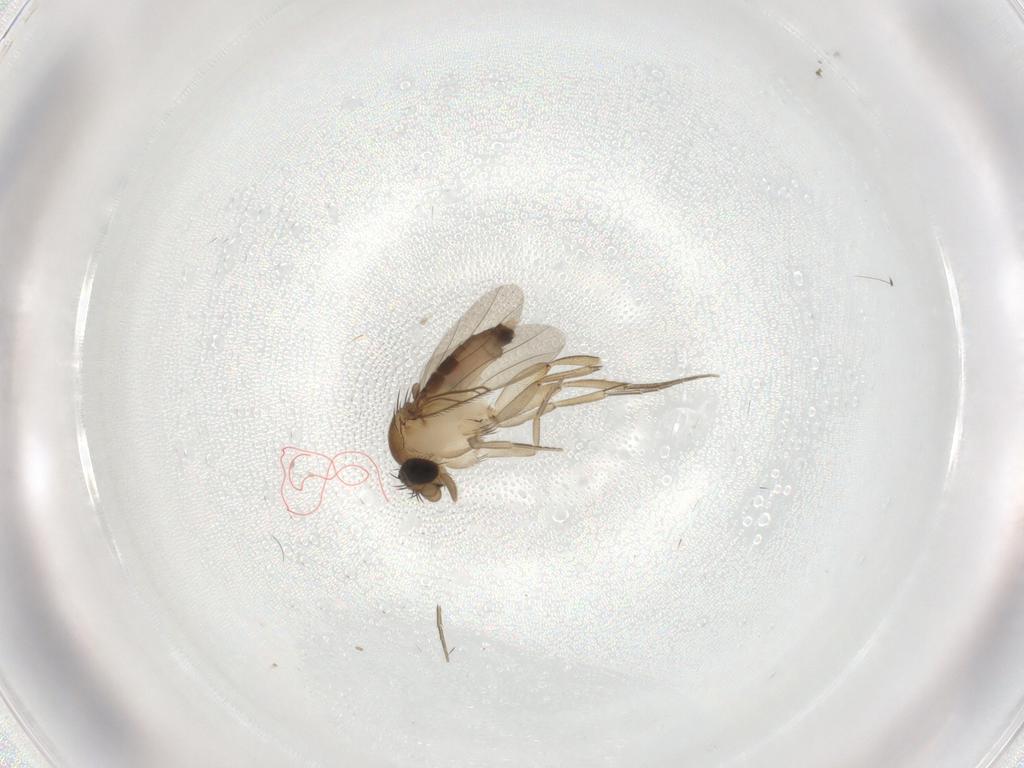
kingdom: Animalia
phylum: Arthropoda
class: Insecta
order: Diptera
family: Phoridae
